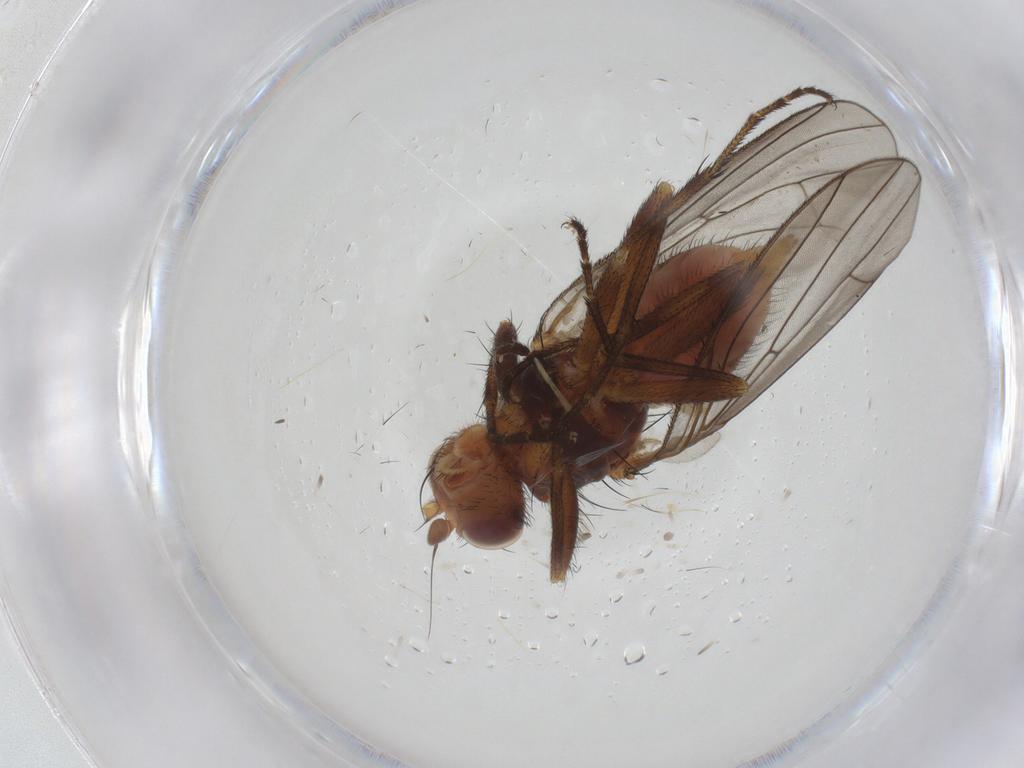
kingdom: Animalia
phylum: Arthropoda
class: Insecta
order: Diptera
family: Heleomyzidae
